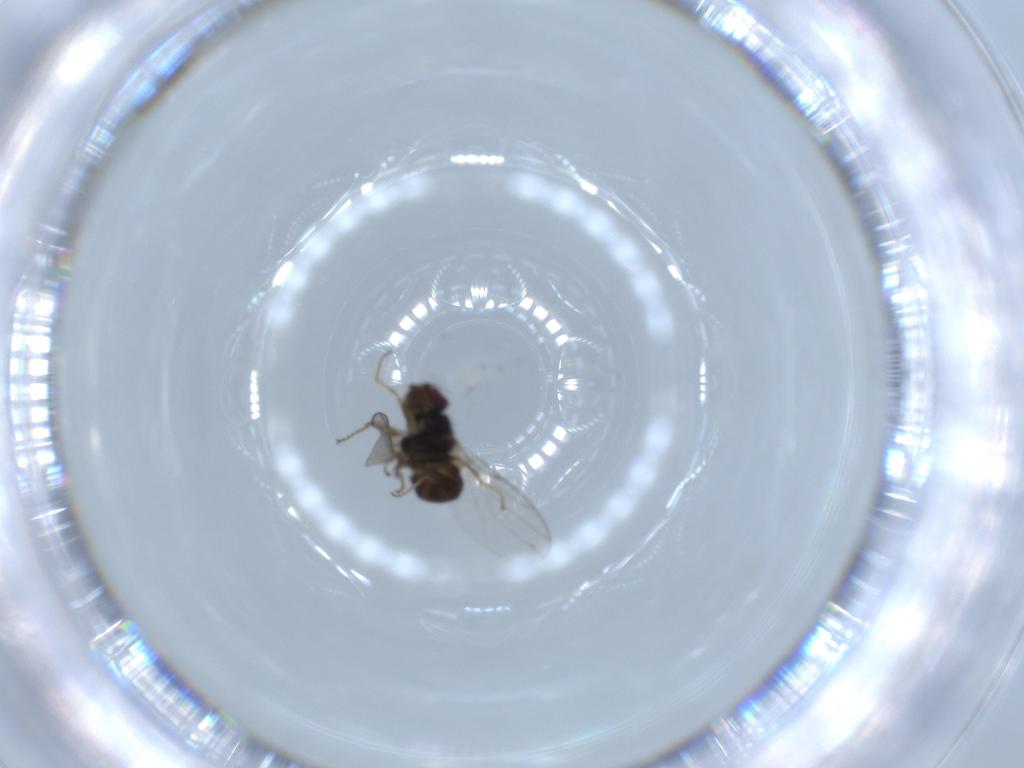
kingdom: Animalia
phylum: Arthropoda
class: Insecta
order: Diptera
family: Chloropidae
